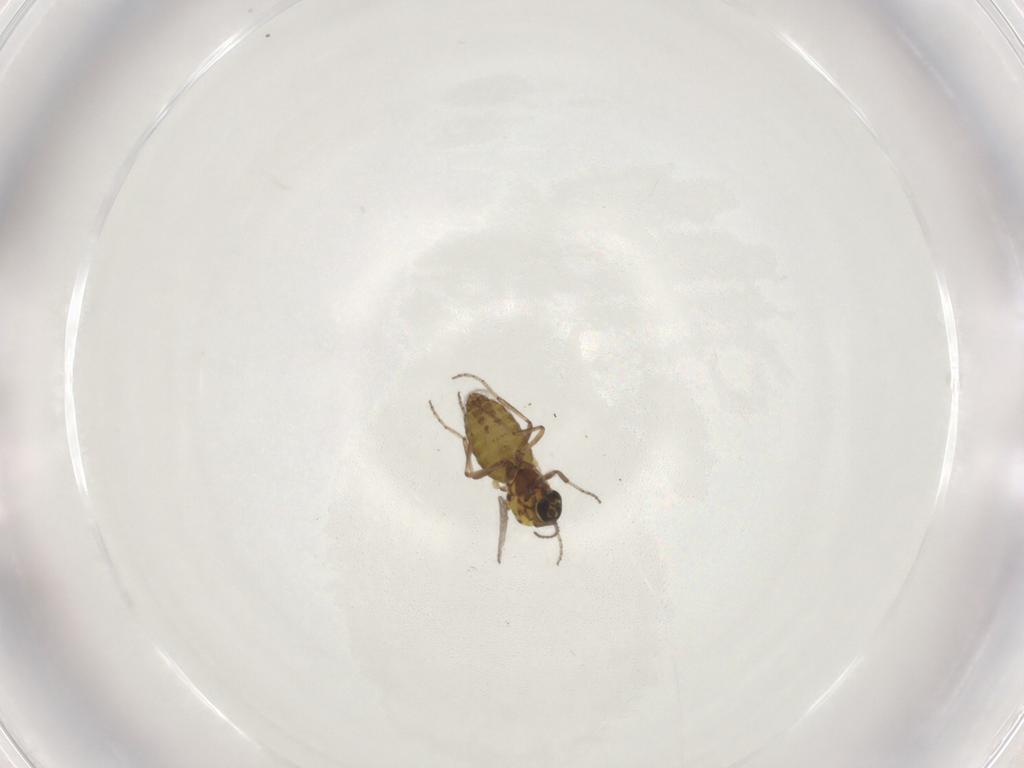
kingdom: Animalia
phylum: Arthropoda
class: Insecta
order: Diptera
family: Ceratopogonidae
